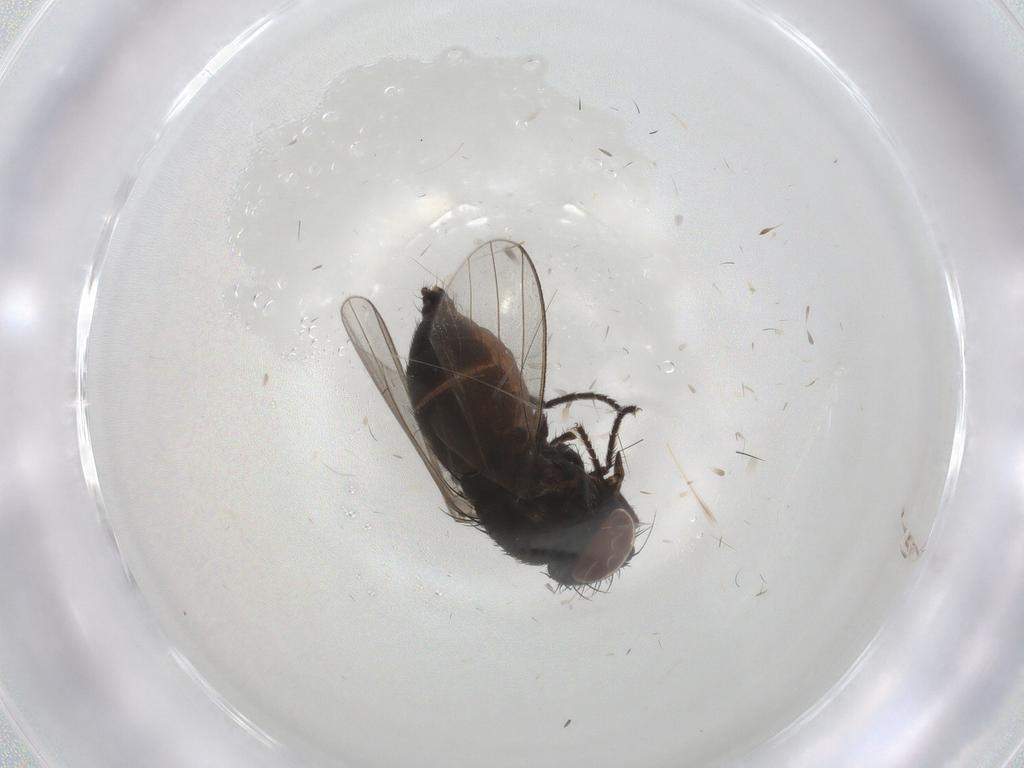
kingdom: Animalia
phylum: Arthropoda
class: Insecta
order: Diptera
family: Milichiidae
